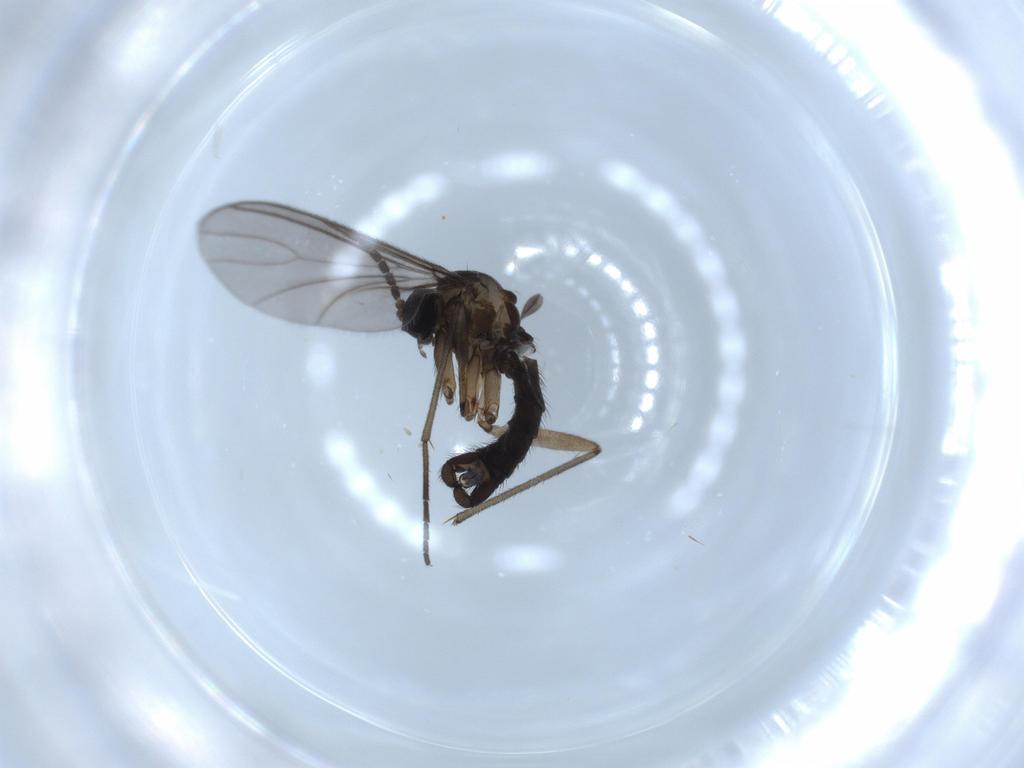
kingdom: Animalia
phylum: Arthropoda
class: Insecta
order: Diptera
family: Sciaridae
